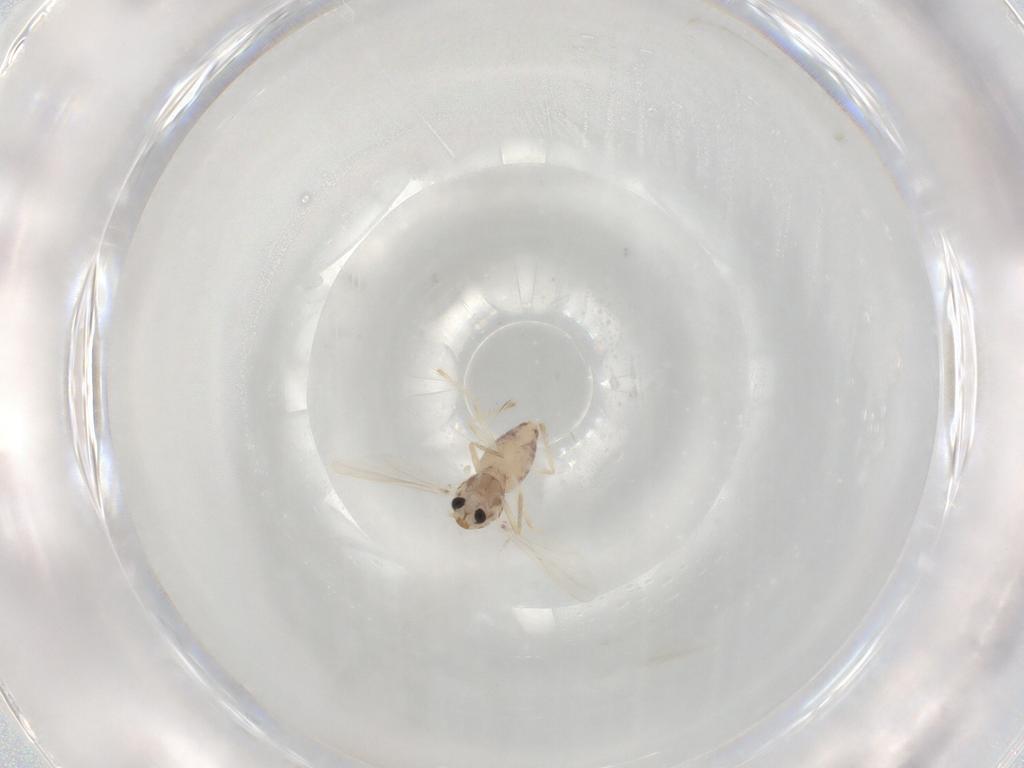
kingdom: Animalia
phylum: Arthropoda
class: Insecta
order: Diptera
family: Chironomidae
